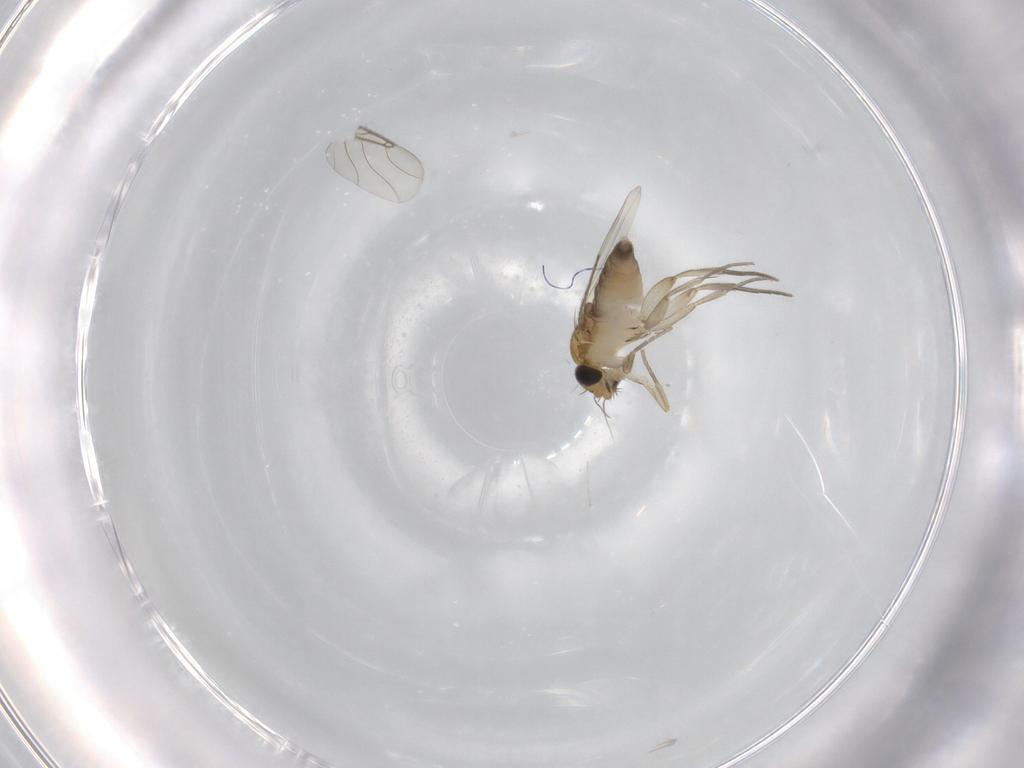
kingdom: Animalia
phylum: Arthropoda
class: Insecta
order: Diptera
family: Phoridae
